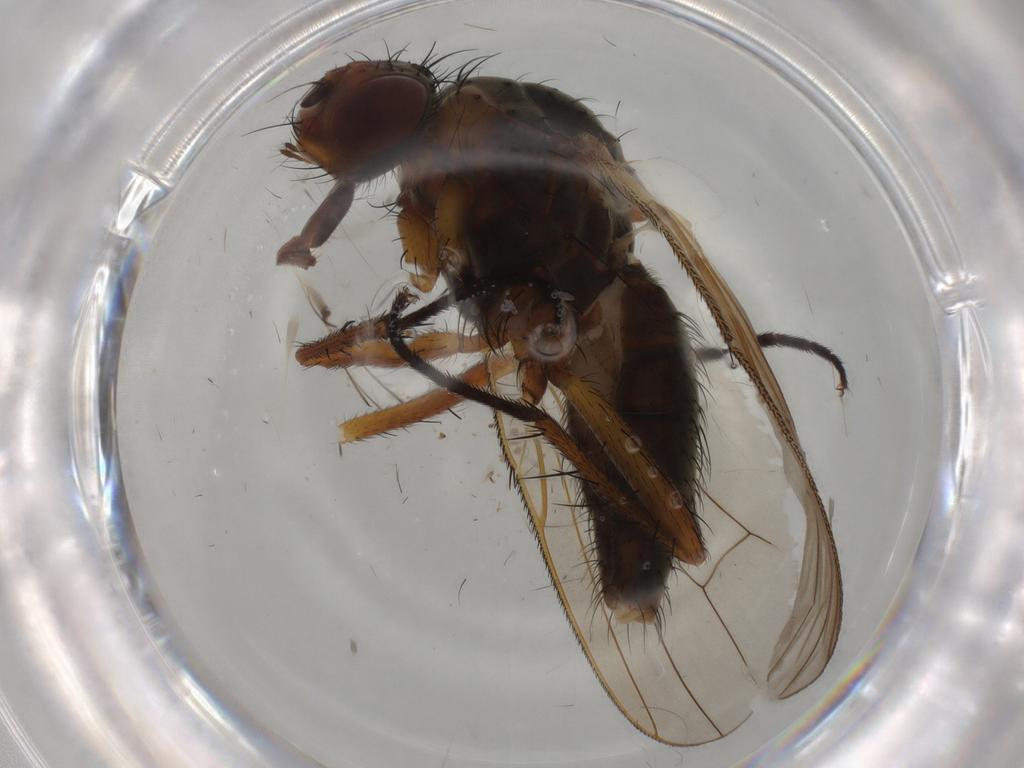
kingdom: Animalia
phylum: Arthropoda
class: Insecta
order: Diptera
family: Anthomyiidae
